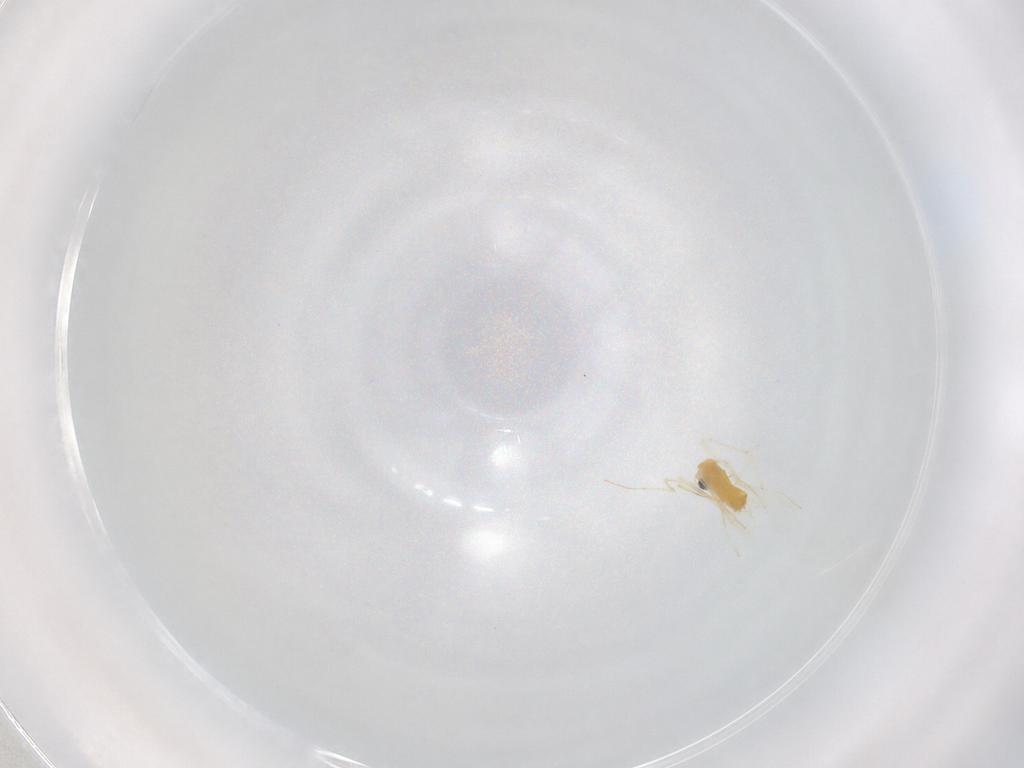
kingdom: Animalia
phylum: Arthropoda
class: Insecta
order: Diptera
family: Chironomidae
